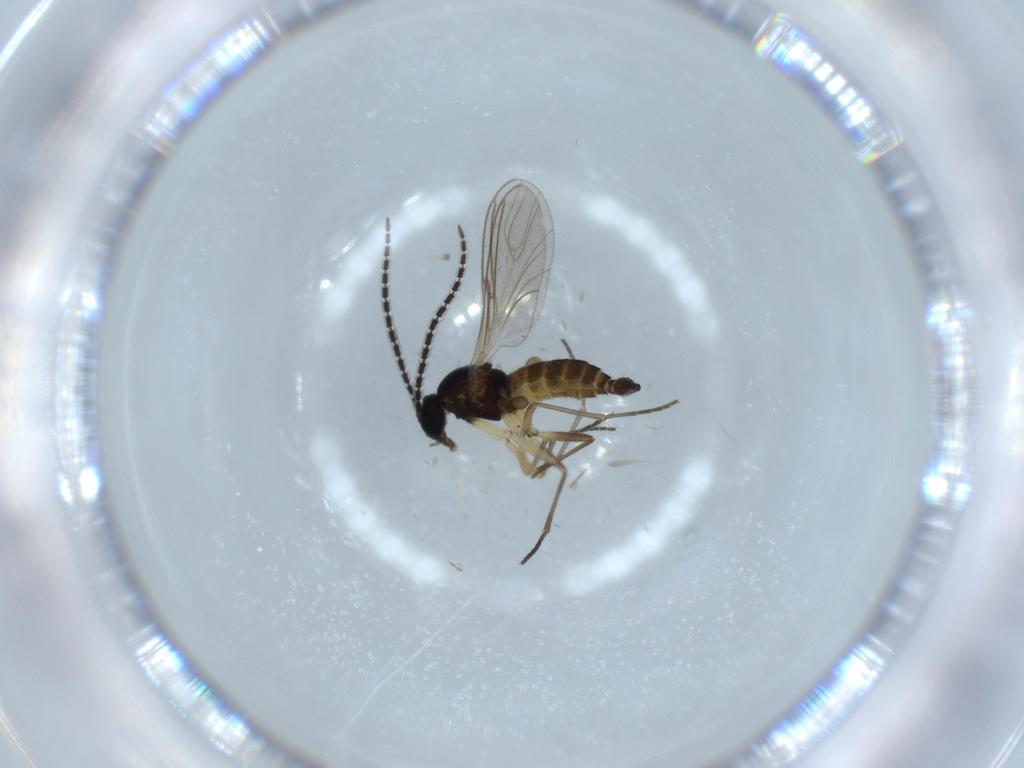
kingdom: Animalia
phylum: Arthropoda
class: Insecta
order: Diptera
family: Sciaridae
